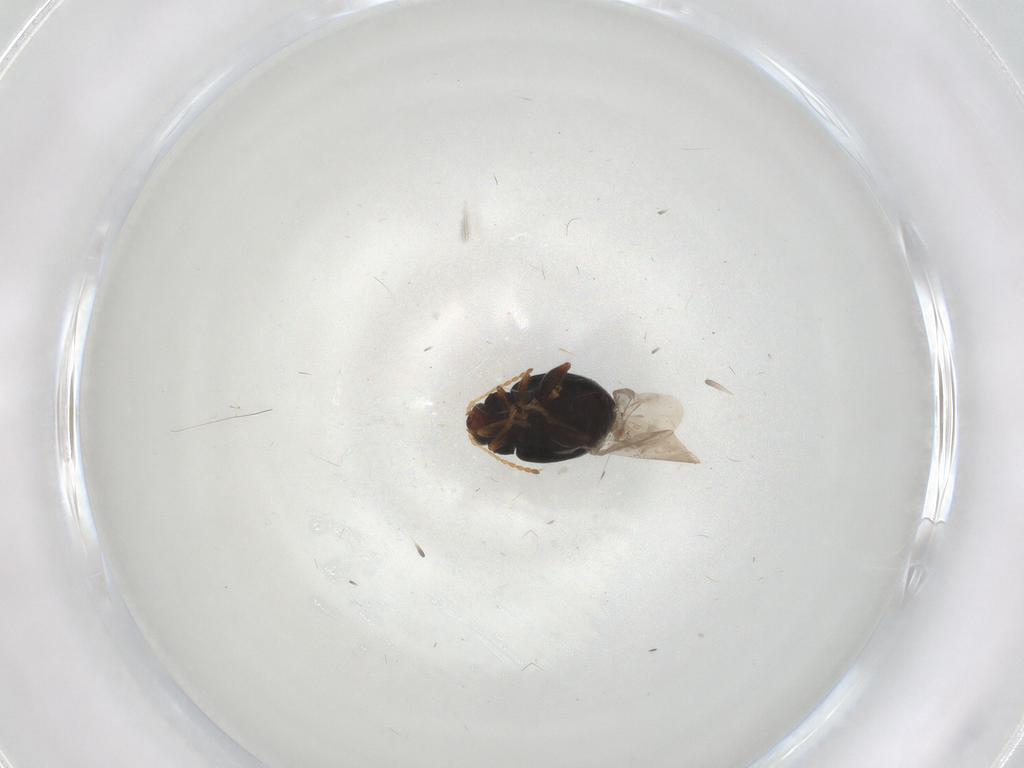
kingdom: Animalia
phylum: Arthropoda
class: Insecta
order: Coleoptera
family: Chrysomelidae
